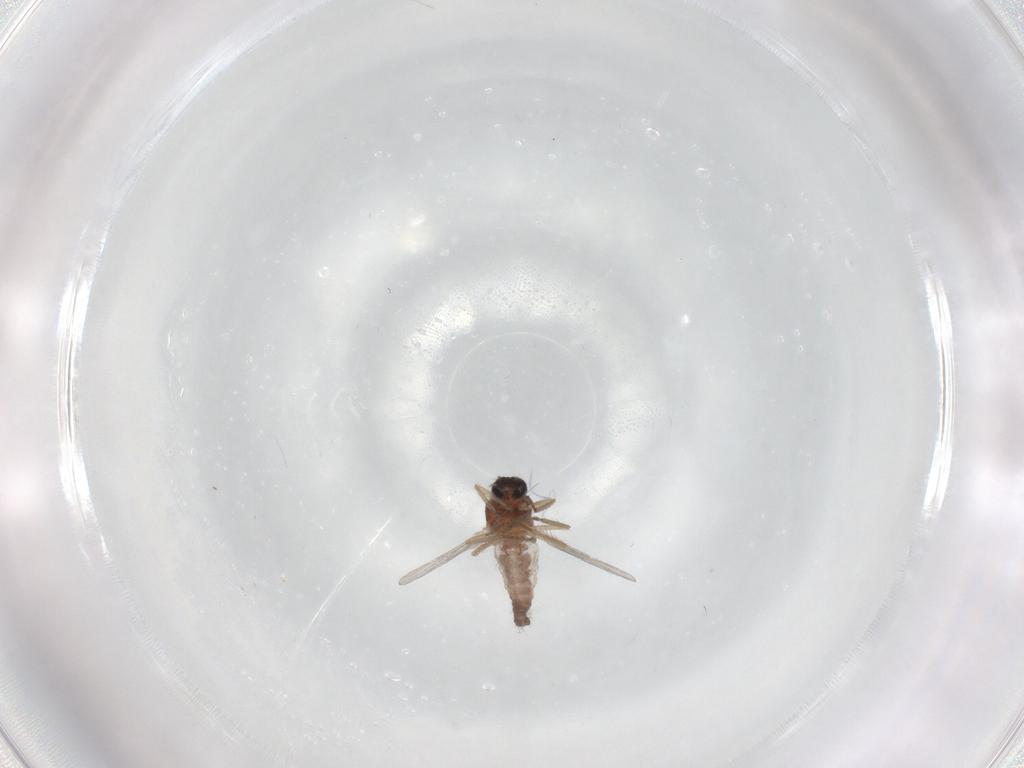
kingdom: Animalia
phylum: Arthropoda
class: Insecta
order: Diptera
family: Ceratopogonidae
